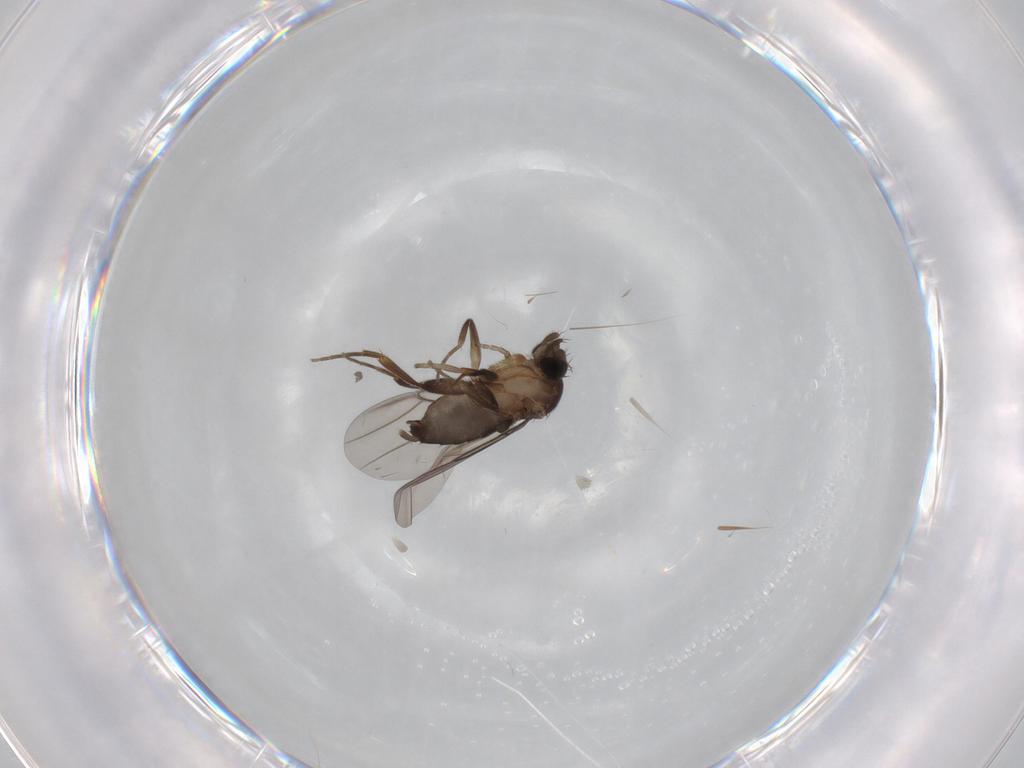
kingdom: Animalia
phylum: Arthropoda
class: Insecta
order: Diptera
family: Phoridae
